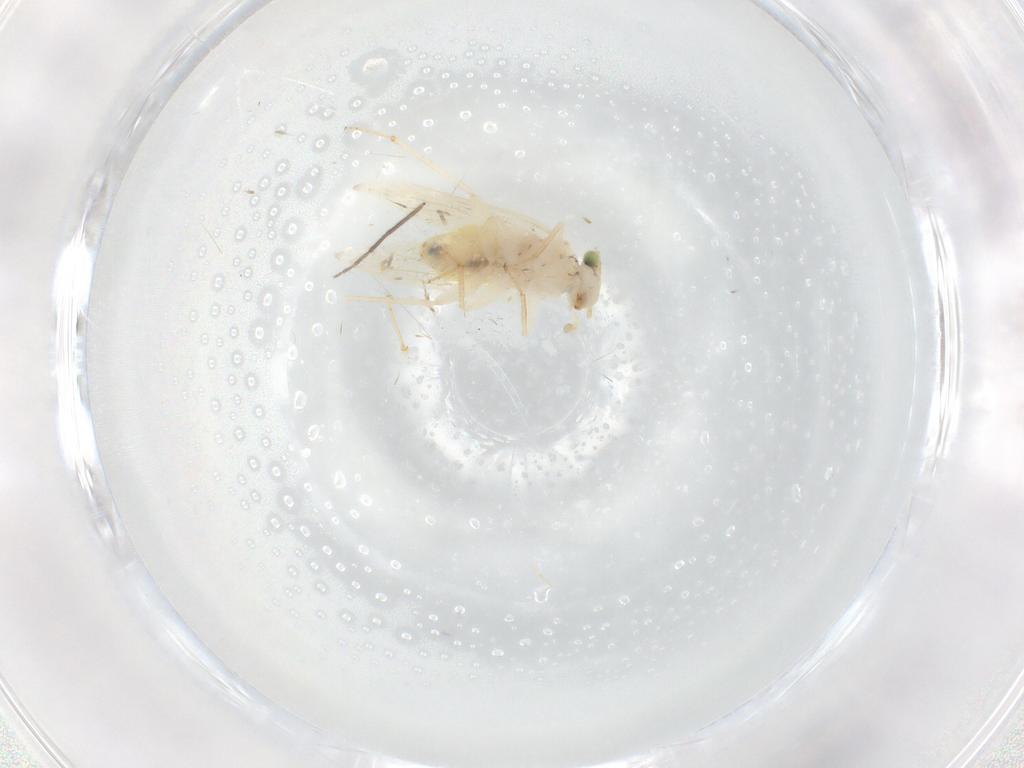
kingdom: Animalia
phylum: Arthropoda
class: Insecta
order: Psocodea
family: Lepidopsocidae
